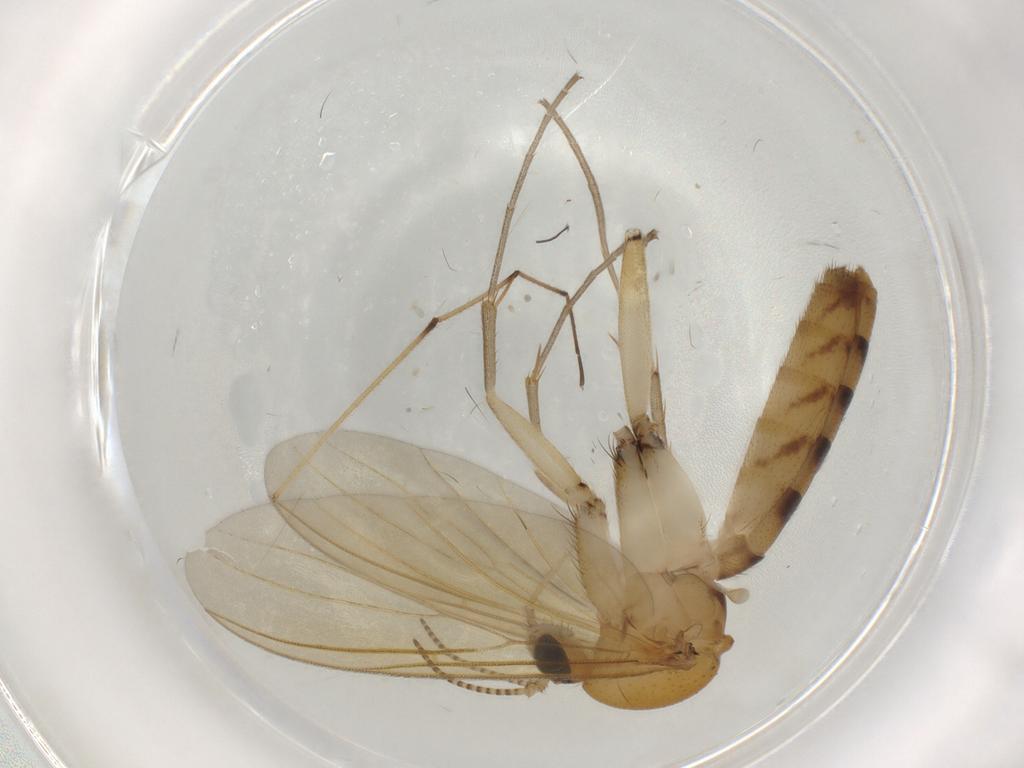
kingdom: Animalia
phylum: Arthropoda
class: Insecta
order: Diptera
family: Mycetophilidae
